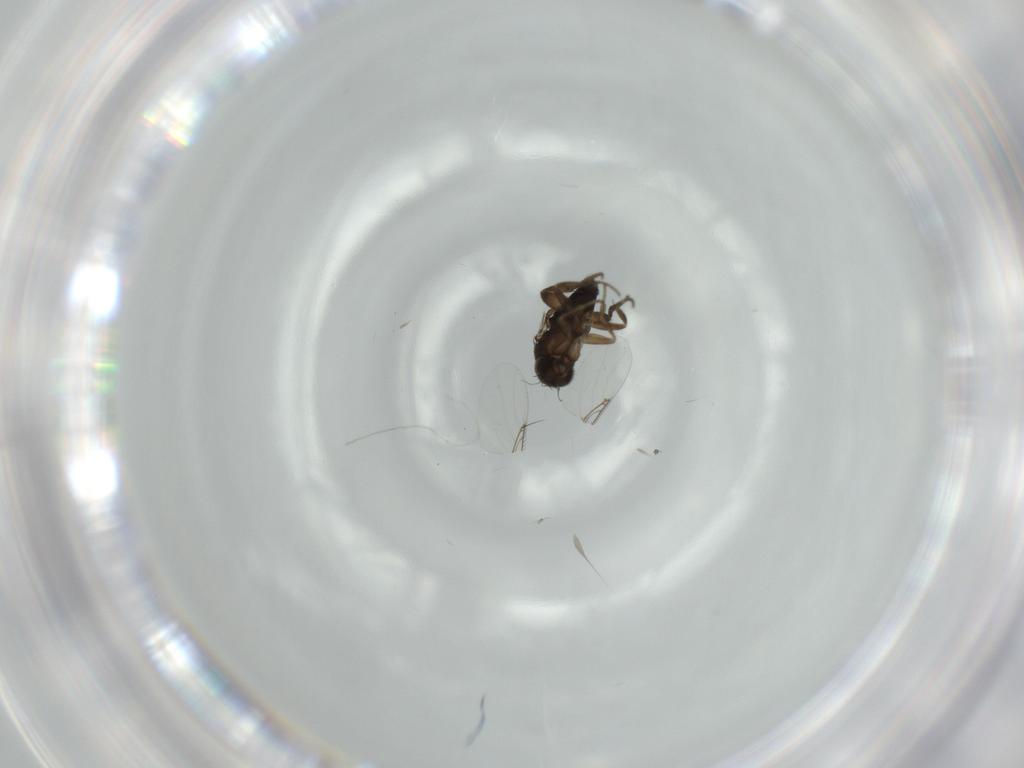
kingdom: Animalia
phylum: Arthropoda
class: Insecta
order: Diptera
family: Phoridae
